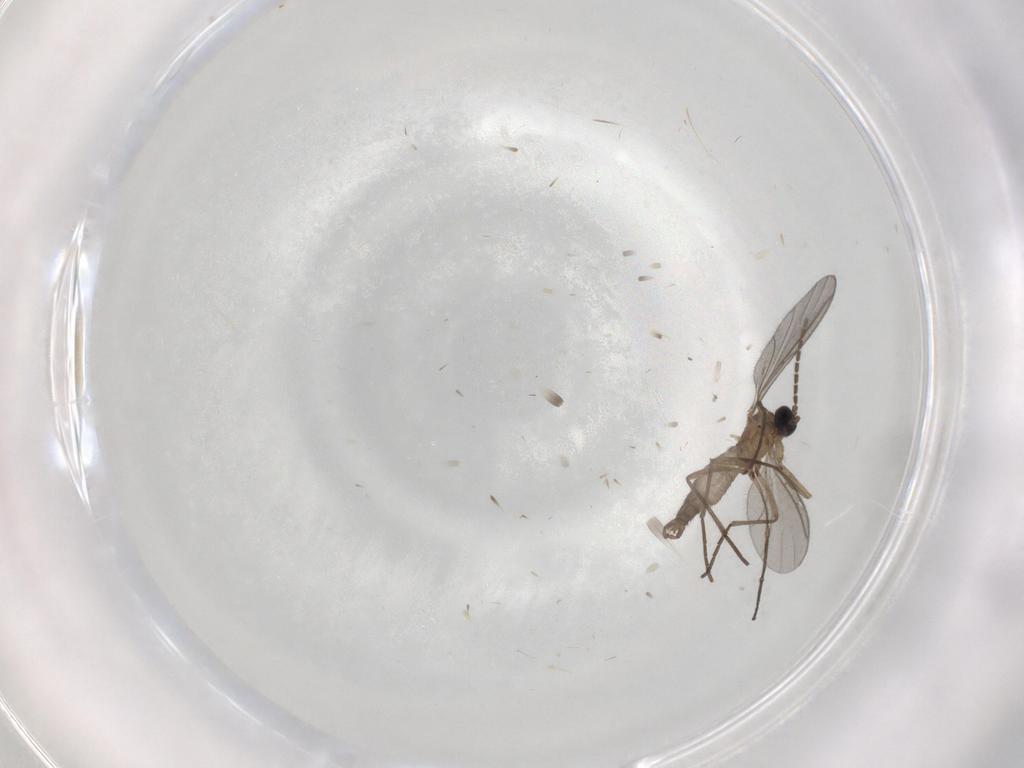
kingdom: Animalia
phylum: Arthropoda
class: Insecta
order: Diptera
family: Sciaridae
